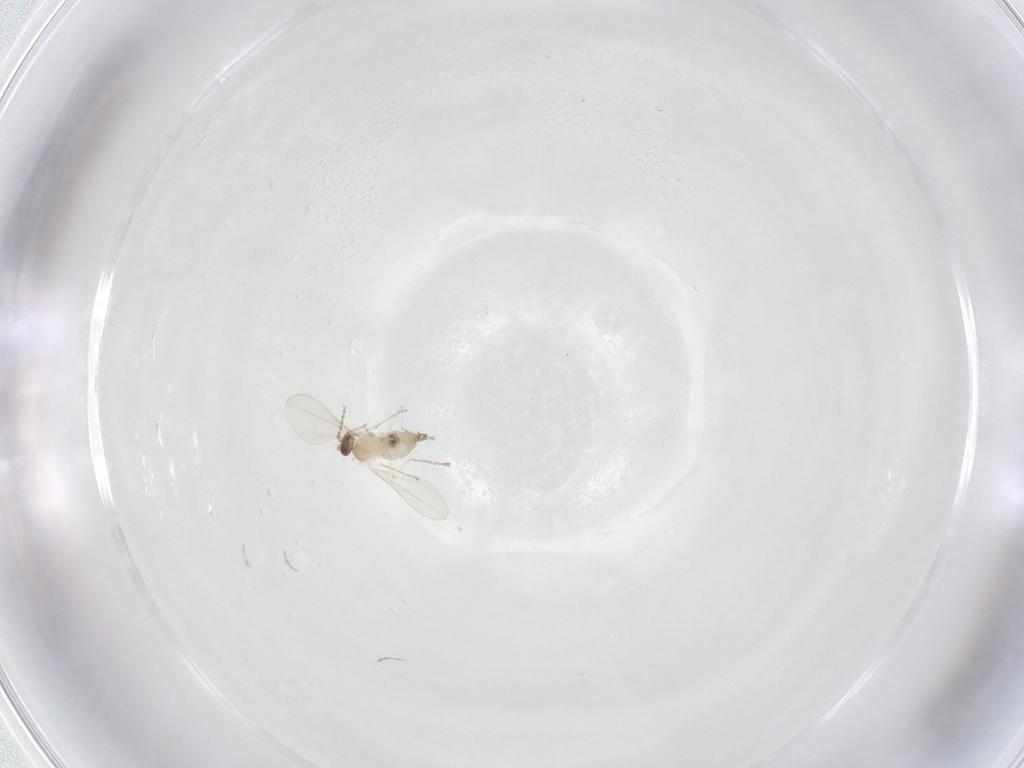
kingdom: Animalia
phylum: Arthropoda
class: Insecta
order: Diptera
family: Cecidomyiidae
